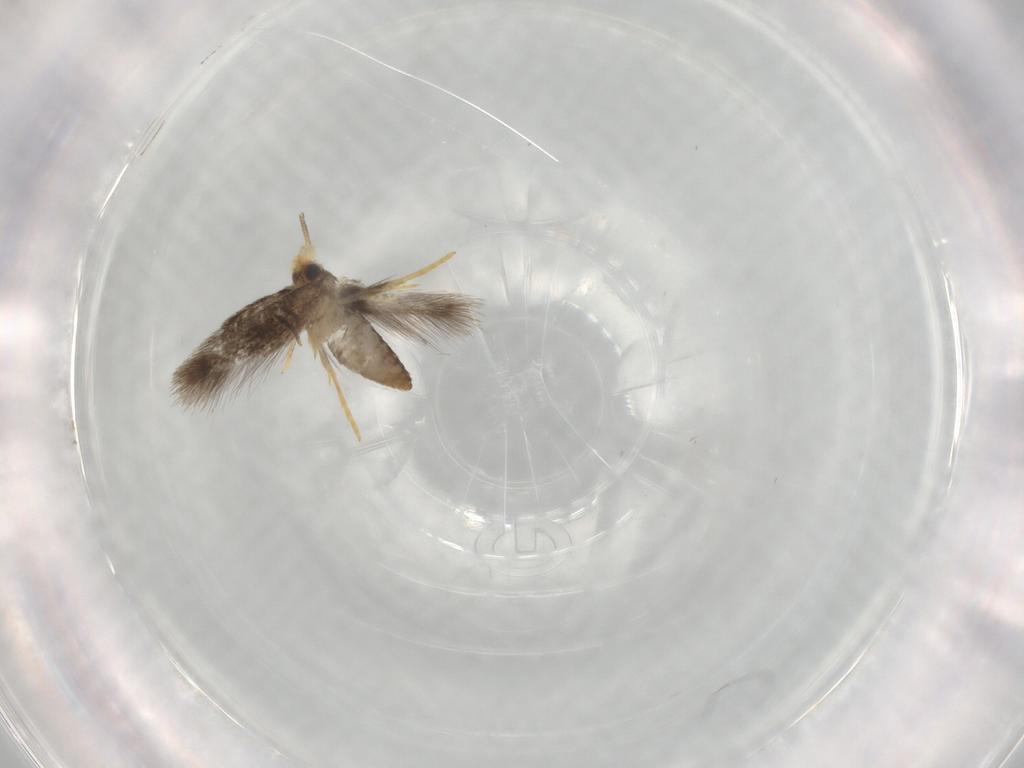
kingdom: Animalia
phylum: Arthropoda
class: Insecta
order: Lepidoptera
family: Nepticulidae
